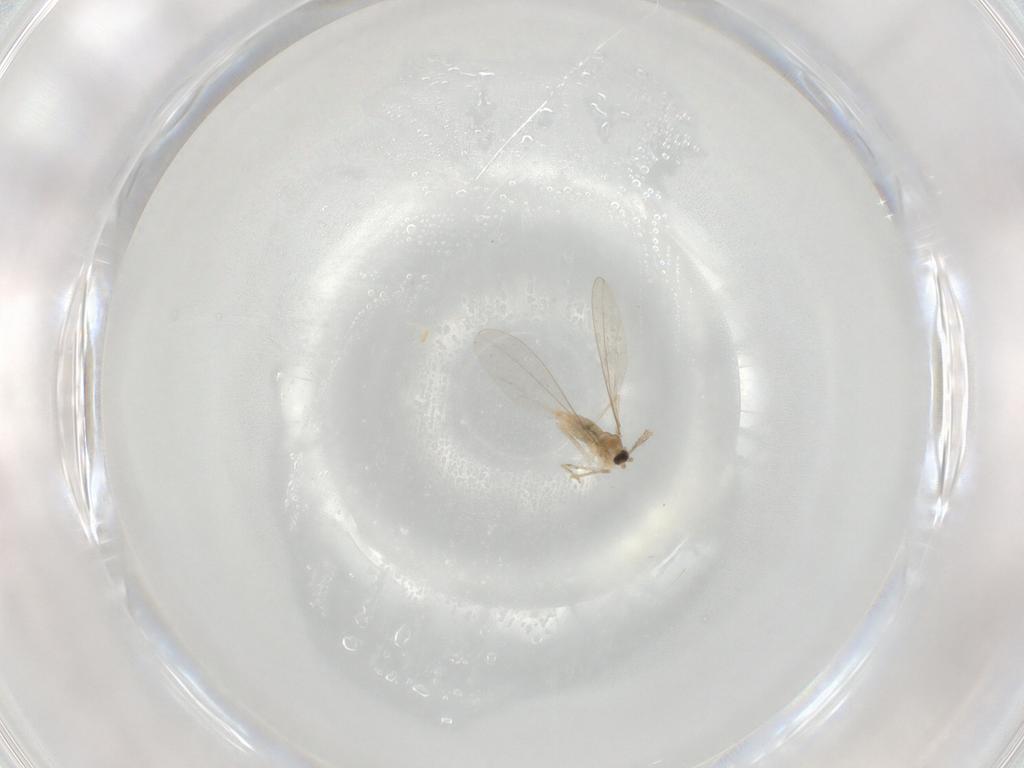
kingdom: Animalia
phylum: Arthropoda
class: Insecta
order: Diptera
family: Cecidomyiidae
